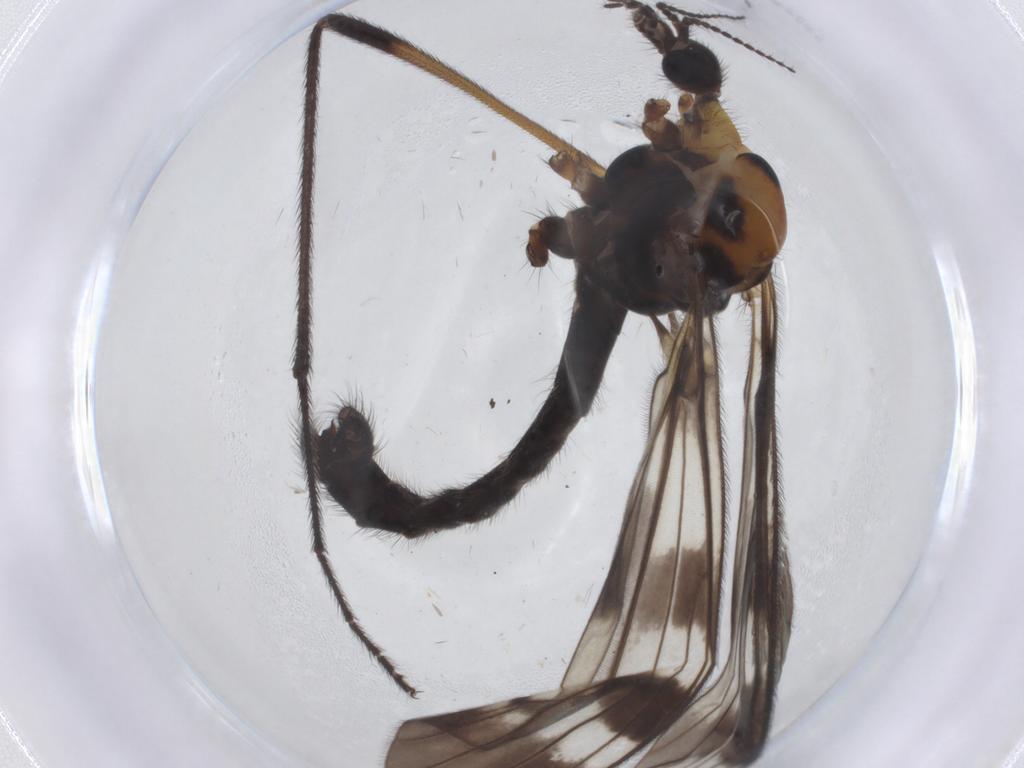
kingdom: Animalia
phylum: Arthropoda
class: Insecta
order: Diptera
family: Limoniidae
